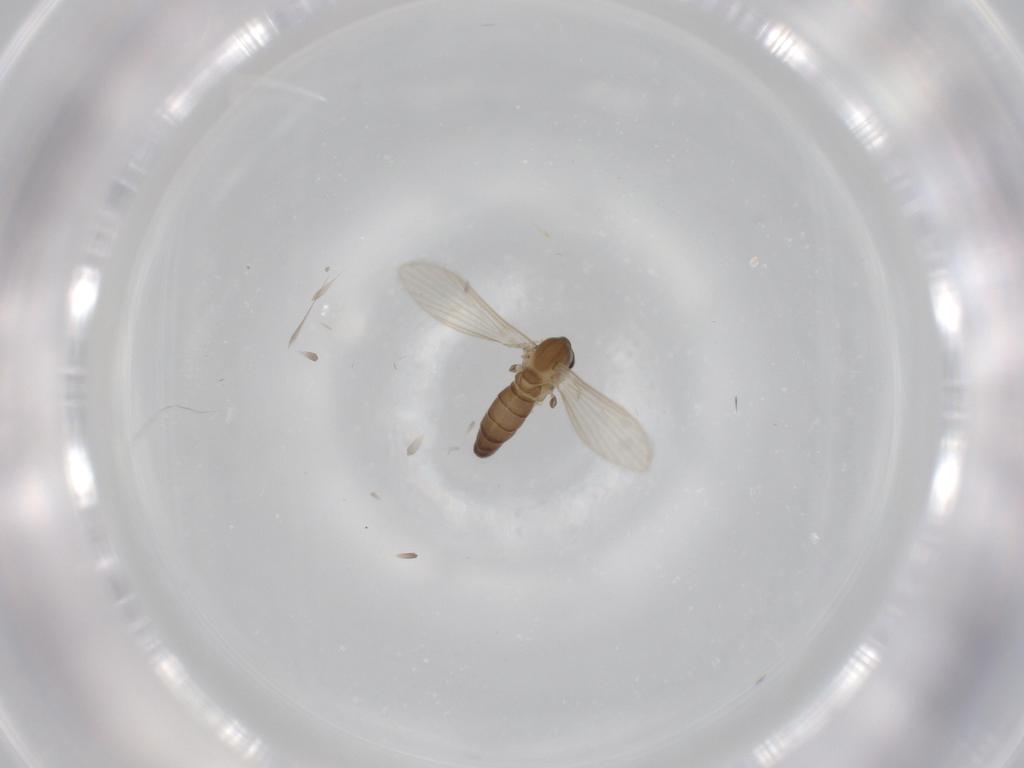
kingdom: Animalia
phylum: Arthropoda
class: Insecta
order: Diptera
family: Psychodidae
